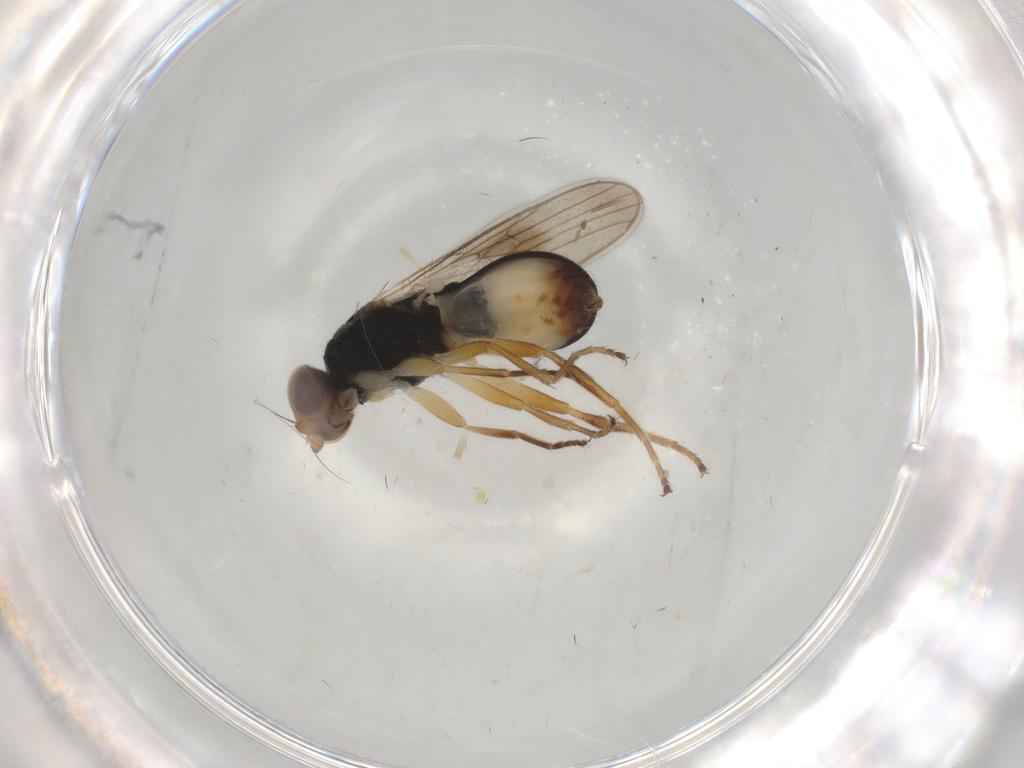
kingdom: Animalia
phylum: Arthropoda
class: Insecta
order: Diptera
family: Chloropidae
